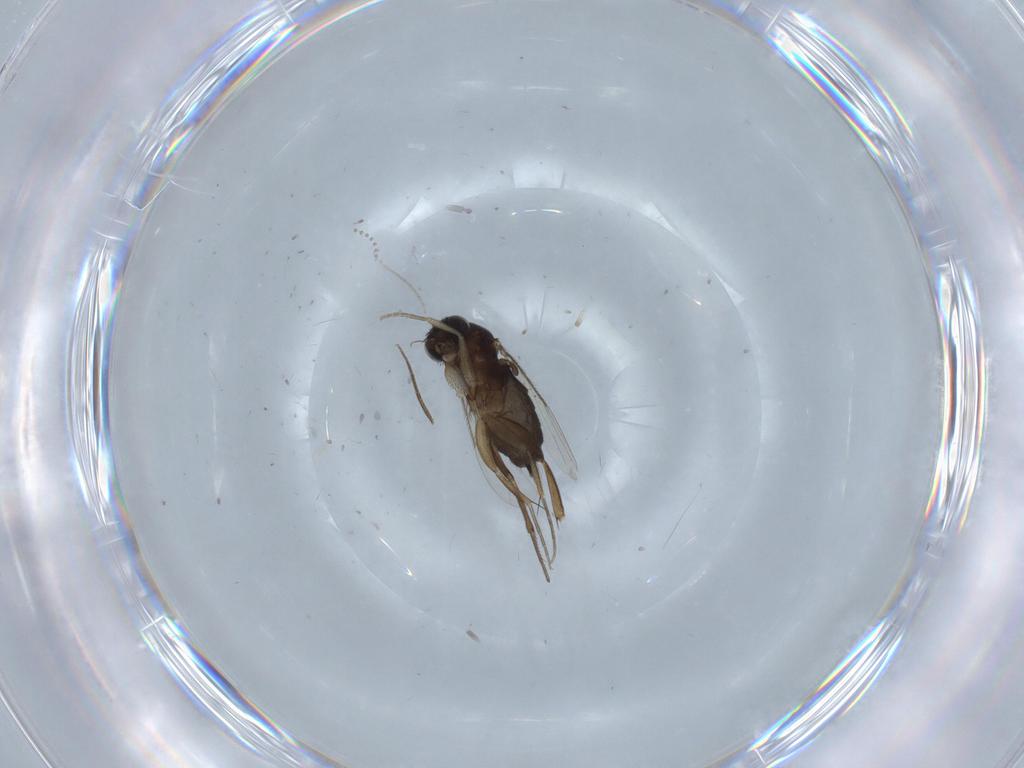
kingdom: Animalia
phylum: Arthropoda
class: Insecta
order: Diptera
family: Phoridae
